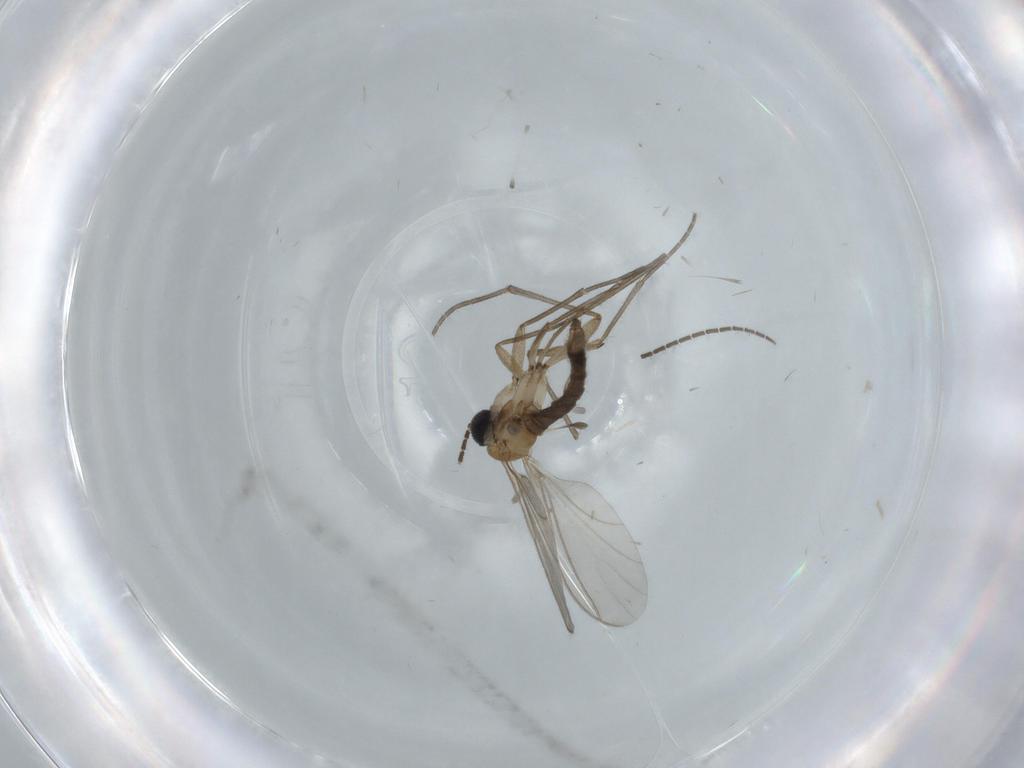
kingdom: Animalia
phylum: Arthropoda
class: Insecta
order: Diptera
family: Sciaridae
